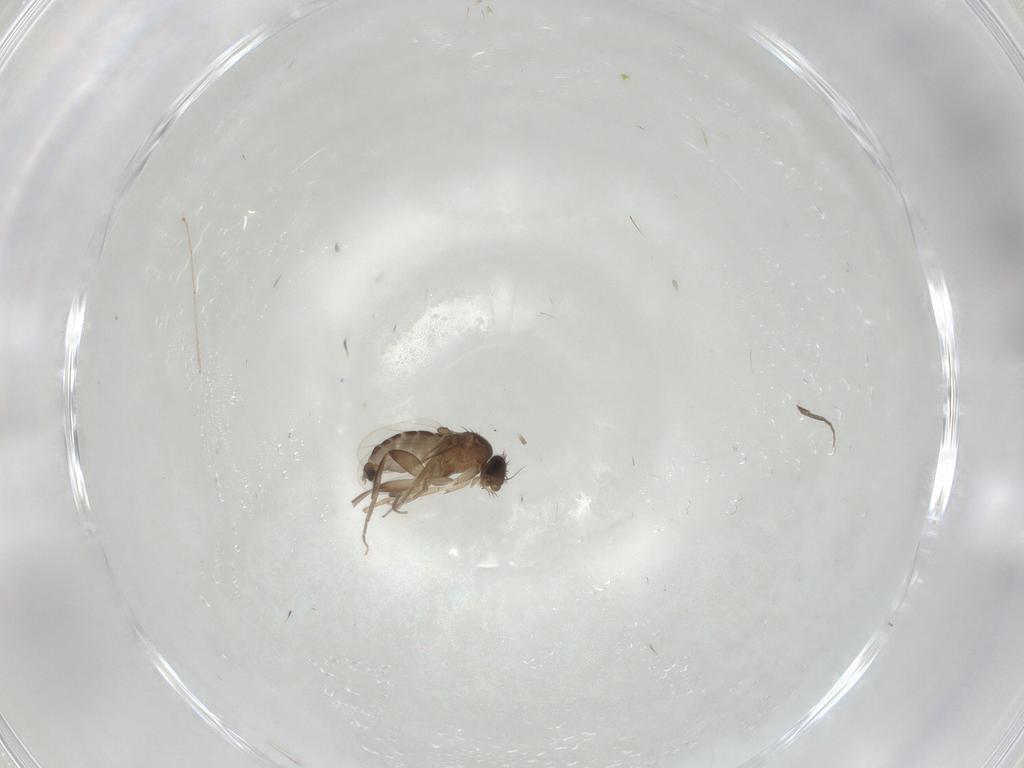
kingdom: Animalia
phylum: Arthropoda
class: Insecta
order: Diptera
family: Phoridae
